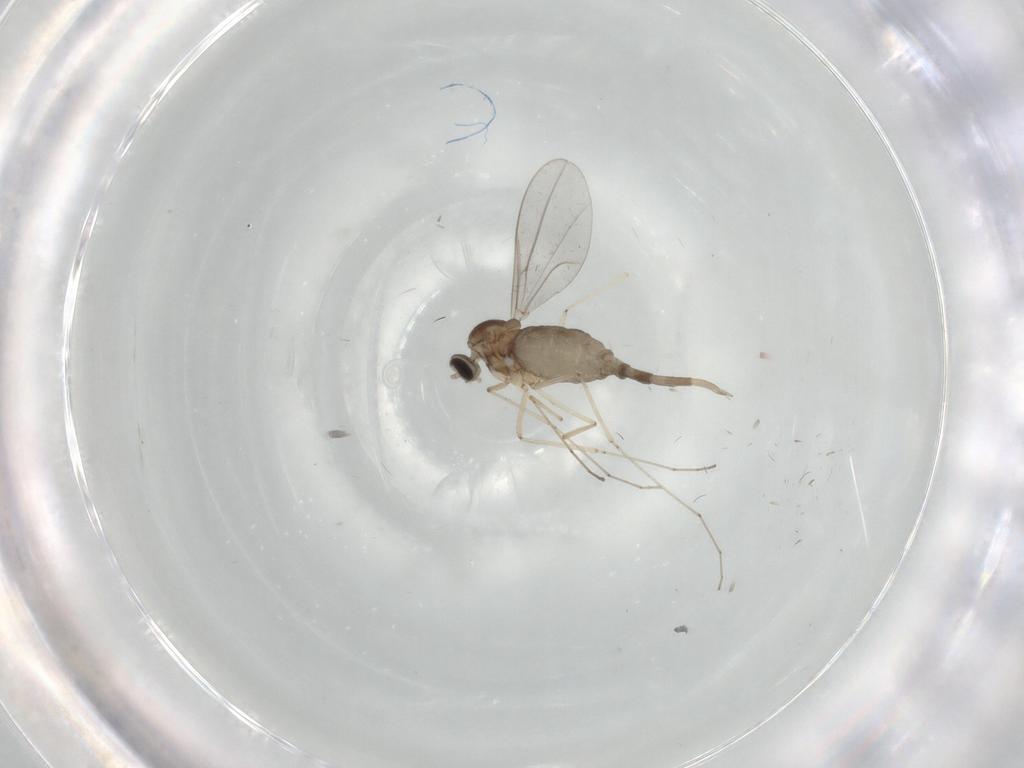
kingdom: Animalia
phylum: Arthropoda
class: Insecta
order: Diptera
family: Cecidomyiidae
